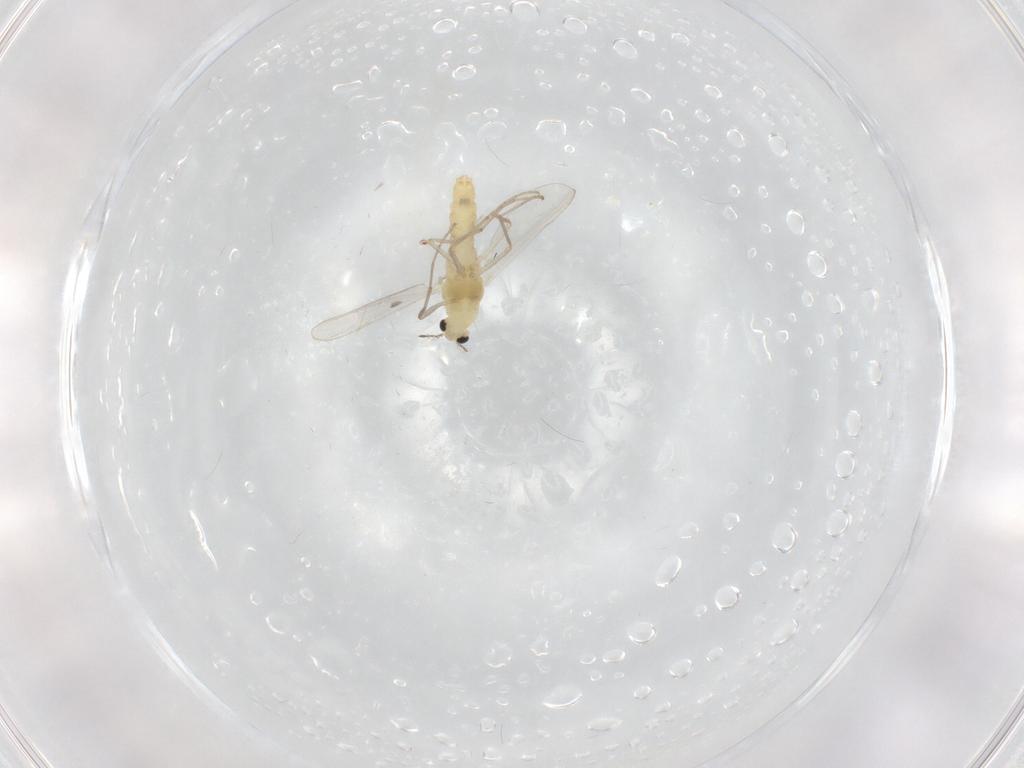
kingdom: Animalia
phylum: Arthropoda
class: Insecta
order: Diptera
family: Chironomidae
